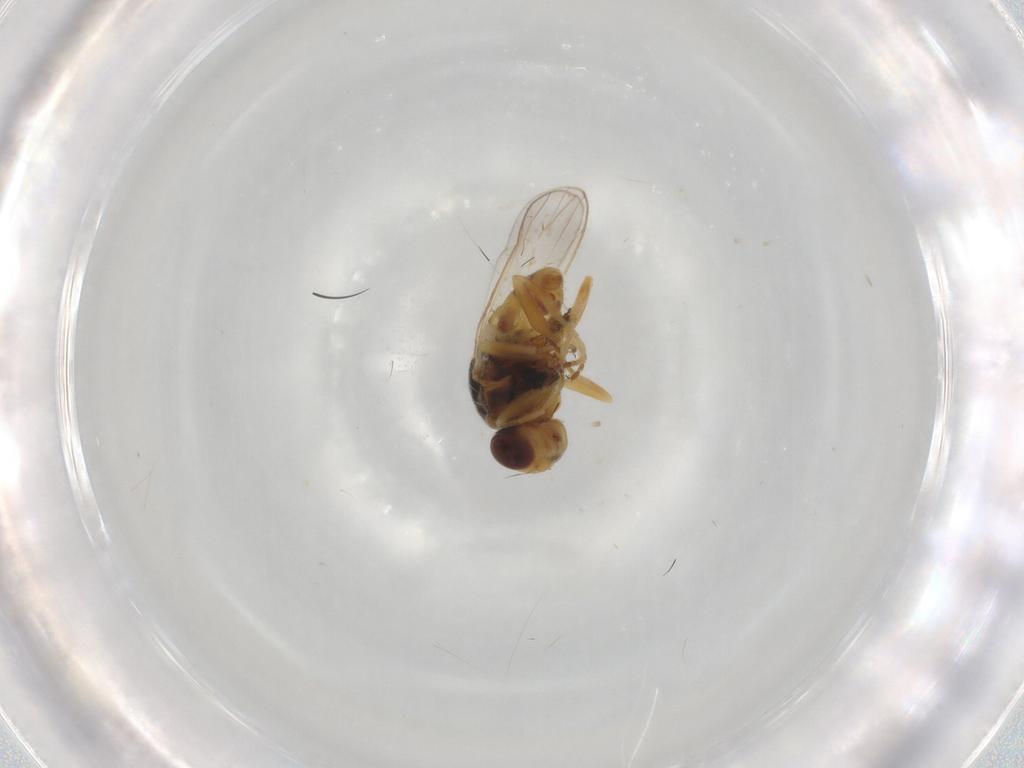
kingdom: Animalia
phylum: Arthropoda
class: Insecta
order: Diptera
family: Chloropidae
